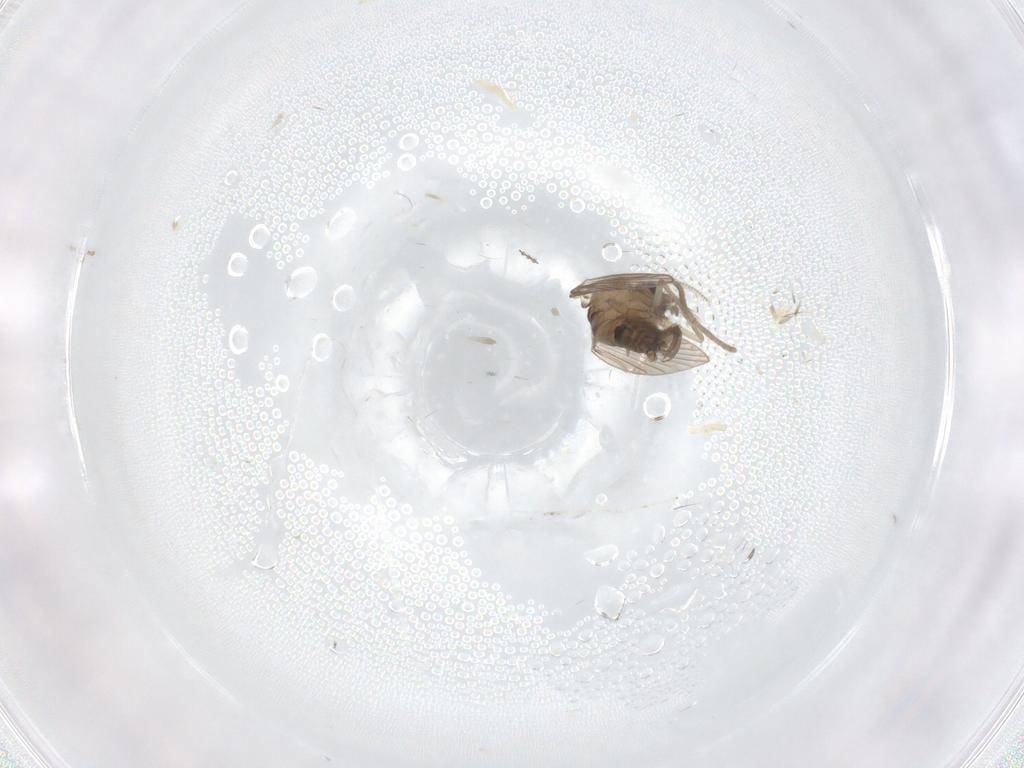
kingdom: Animalia
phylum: Arthropoda
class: Insecta
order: Diptera
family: Psychodidae
